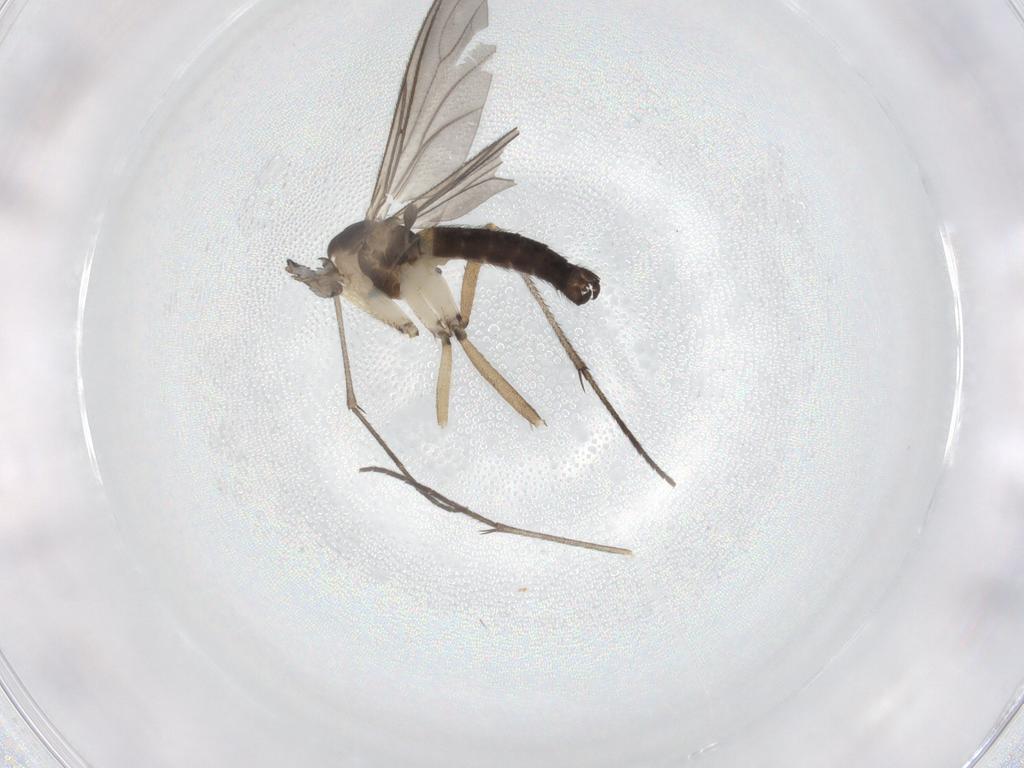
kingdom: Animalia
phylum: Arthropoda
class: Insecta
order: Diptera
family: Sciaridae
